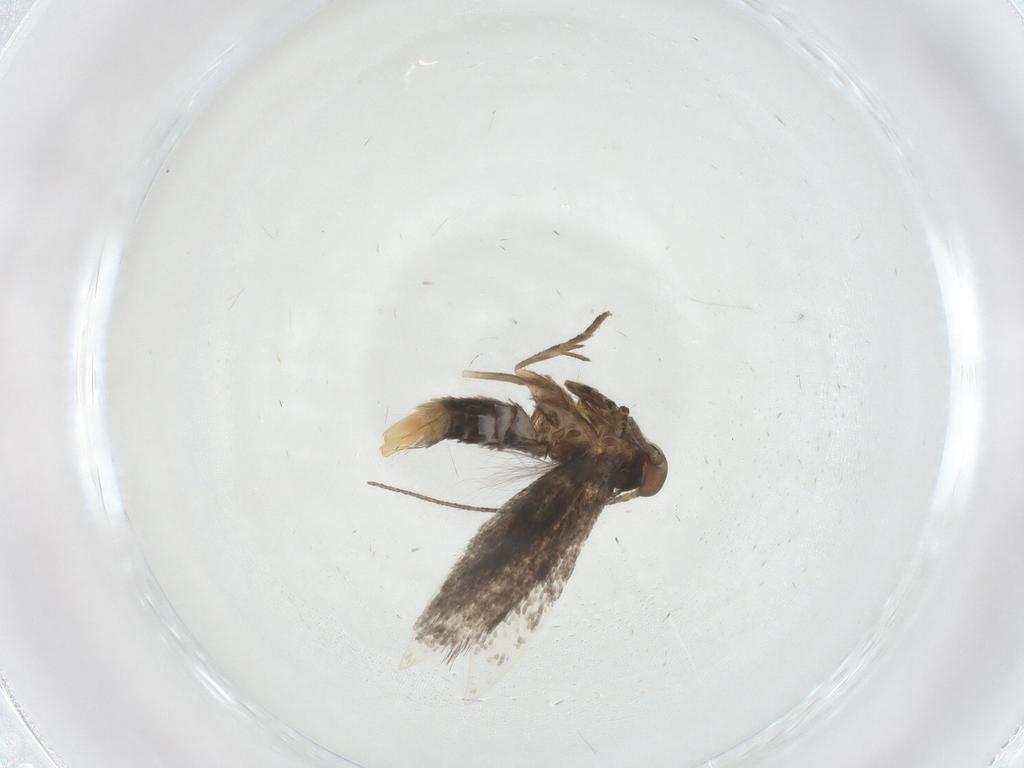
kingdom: Animalia
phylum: Arthropoda
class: Insecta
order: Lepidoptera
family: Elachistidae
